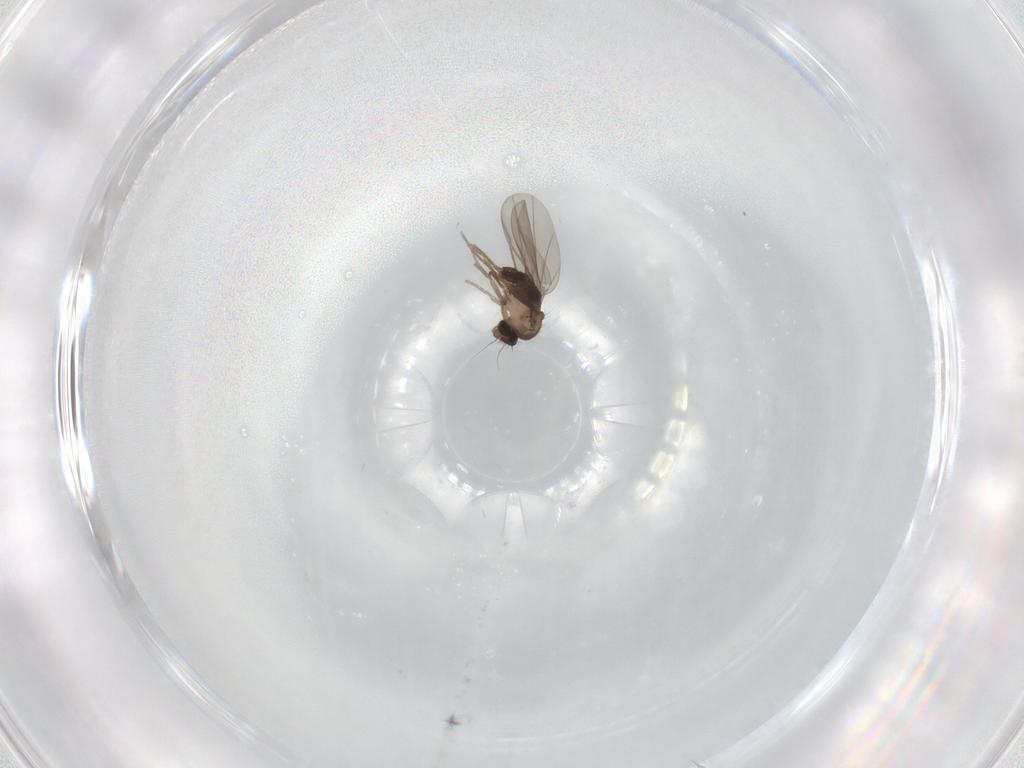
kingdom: Animalia
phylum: Arthropoda
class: Insecta
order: Diptera
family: Phoridae
